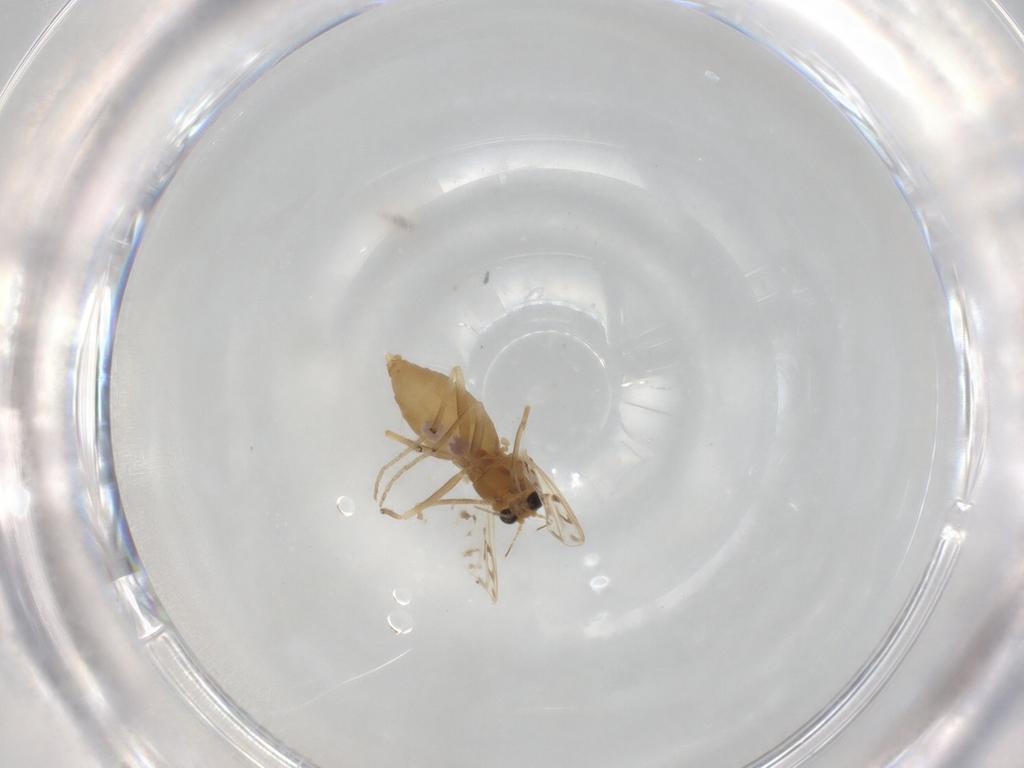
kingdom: Animalia
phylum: Arthropoda
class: Insecta
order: Diptera
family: Chironomidae
